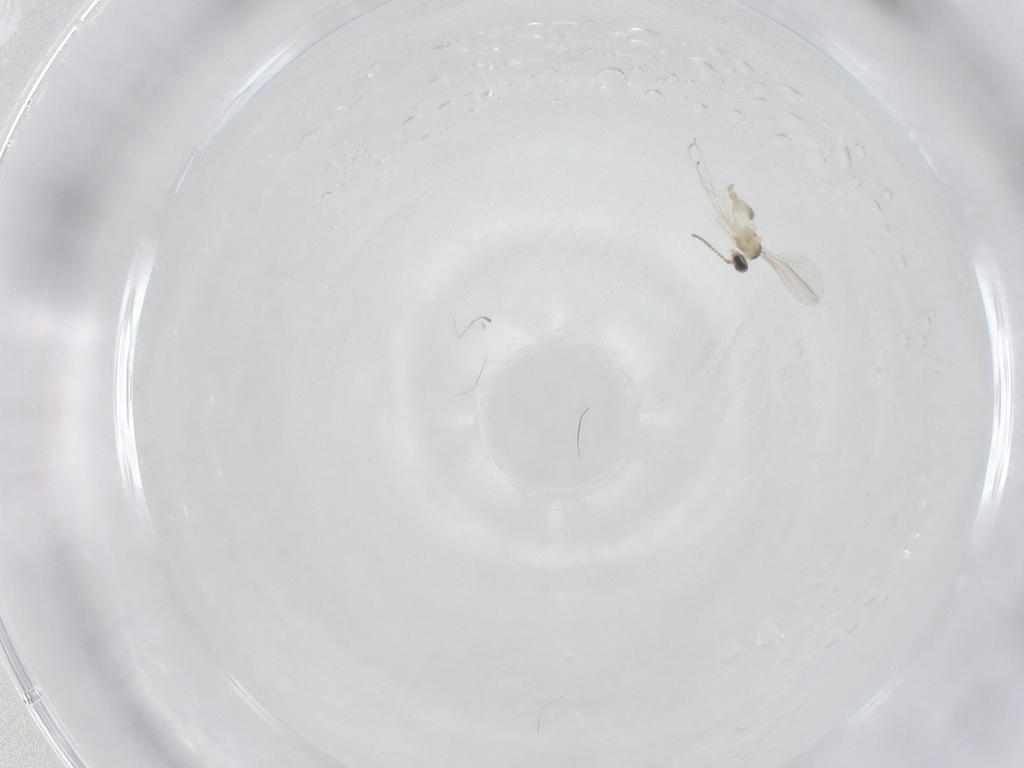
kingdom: Animalia
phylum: Arthropoda
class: Insecta
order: Diptera
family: Cecidomyiidae
